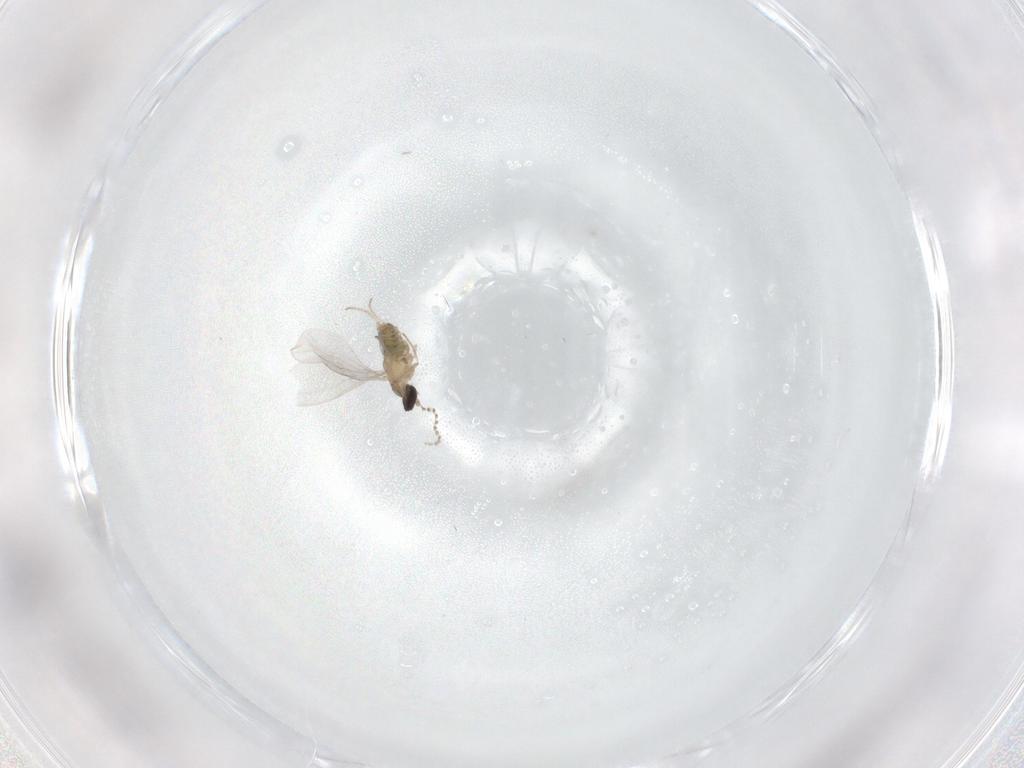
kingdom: Animalia
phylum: Arthropoda
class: Insecta
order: Diptera
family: Cecidomyiidae
